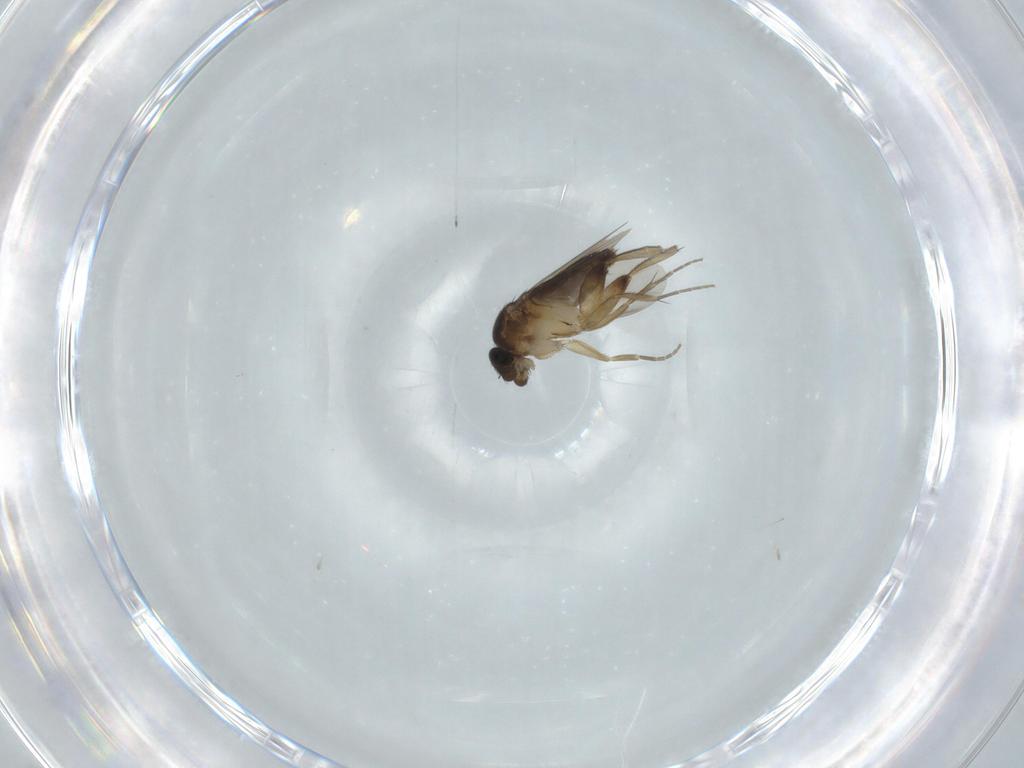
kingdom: Animalia
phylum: Arthropoda
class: Insecta
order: Diptera
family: Phoridae
